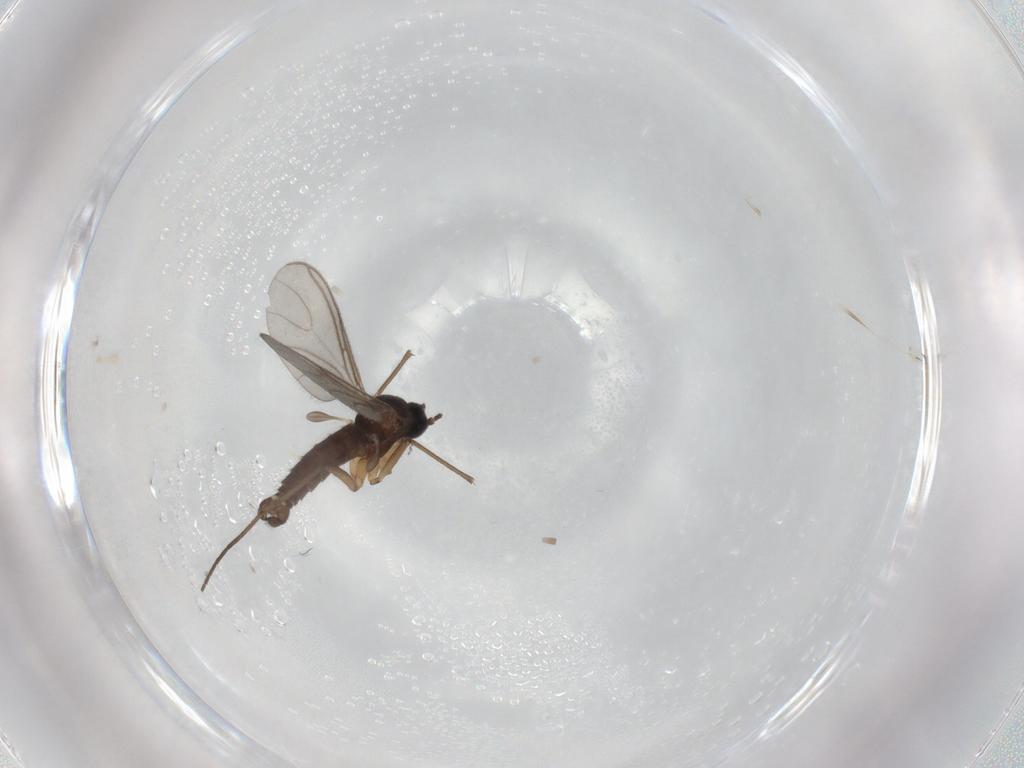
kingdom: Animalia
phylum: Arthropoda
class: Insecta
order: Diptera
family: Sciaridae
